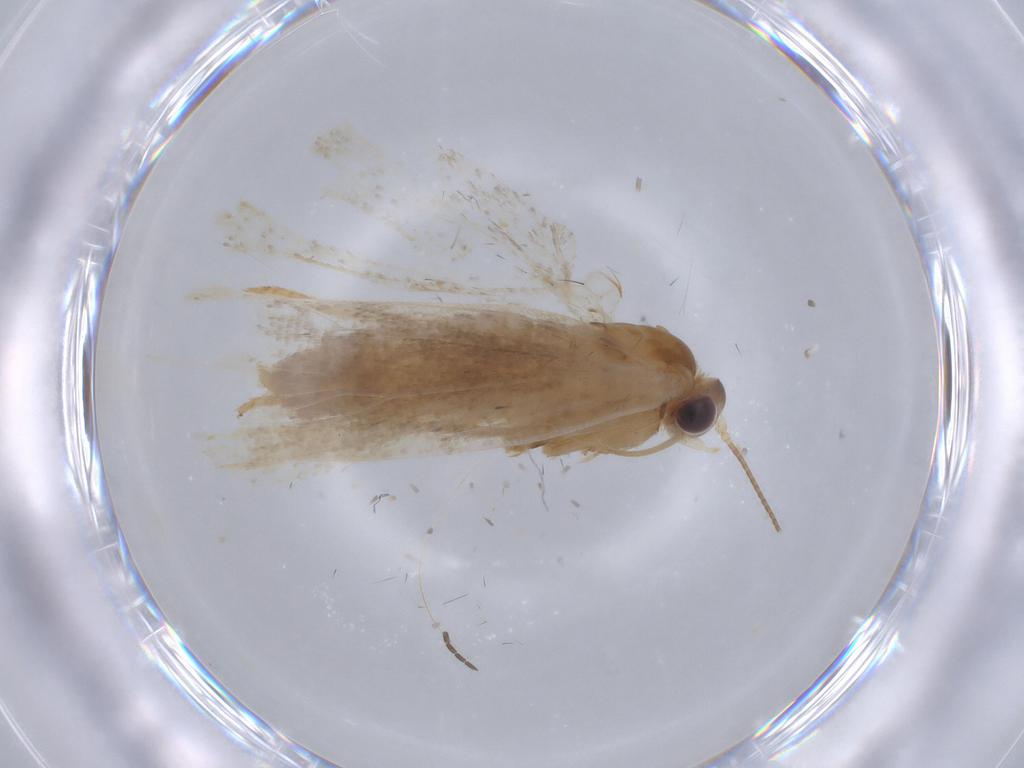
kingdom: Animalia
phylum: Arthropoda
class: Insecta
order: Lepidoptera
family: Tortricidae
